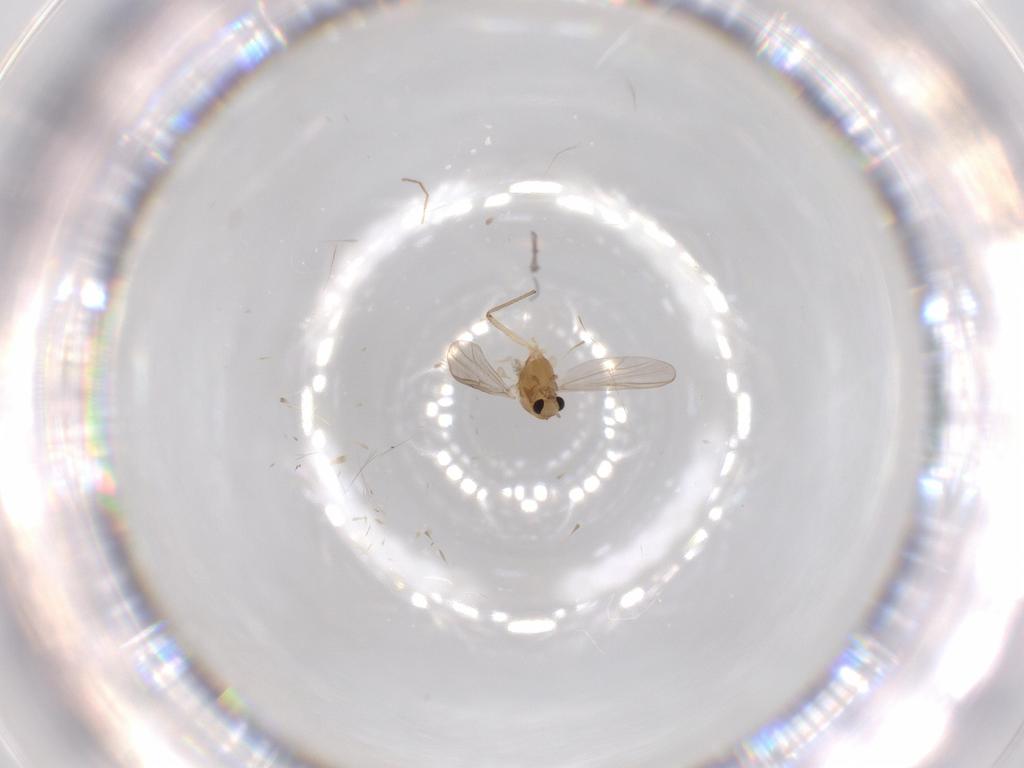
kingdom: Animalia
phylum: Arthropoda
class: Insecta
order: Diptera
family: Chironomidae
